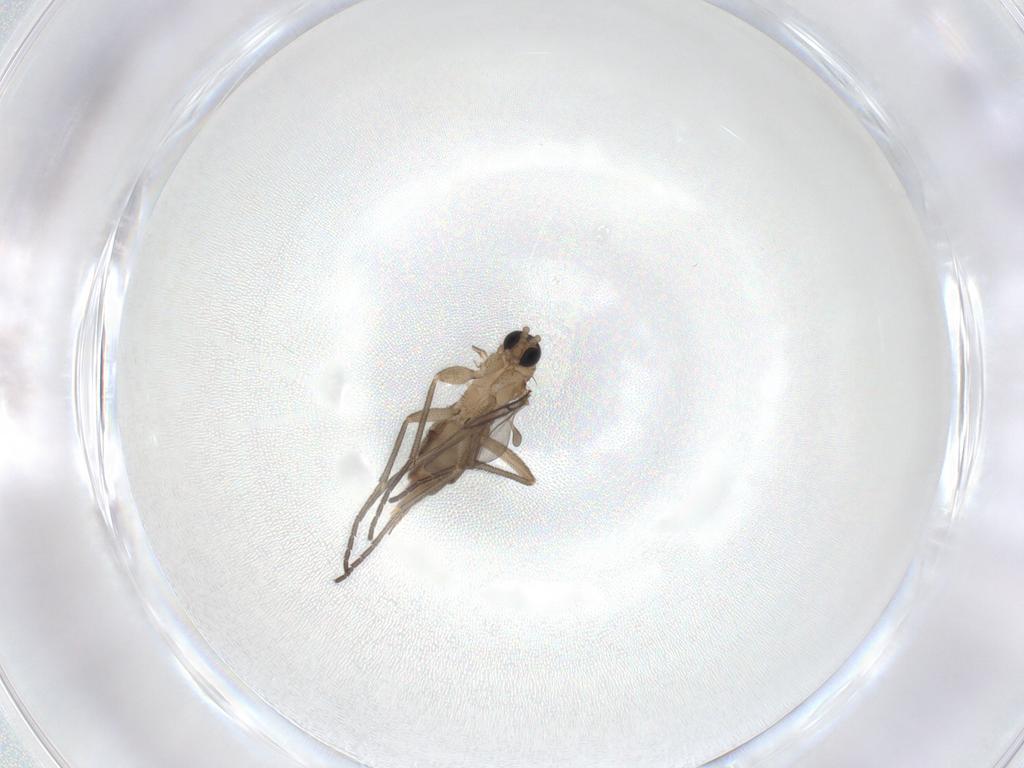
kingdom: Animalia
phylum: Arthropoda
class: Insecta
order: Diptera
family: Sciaridae
